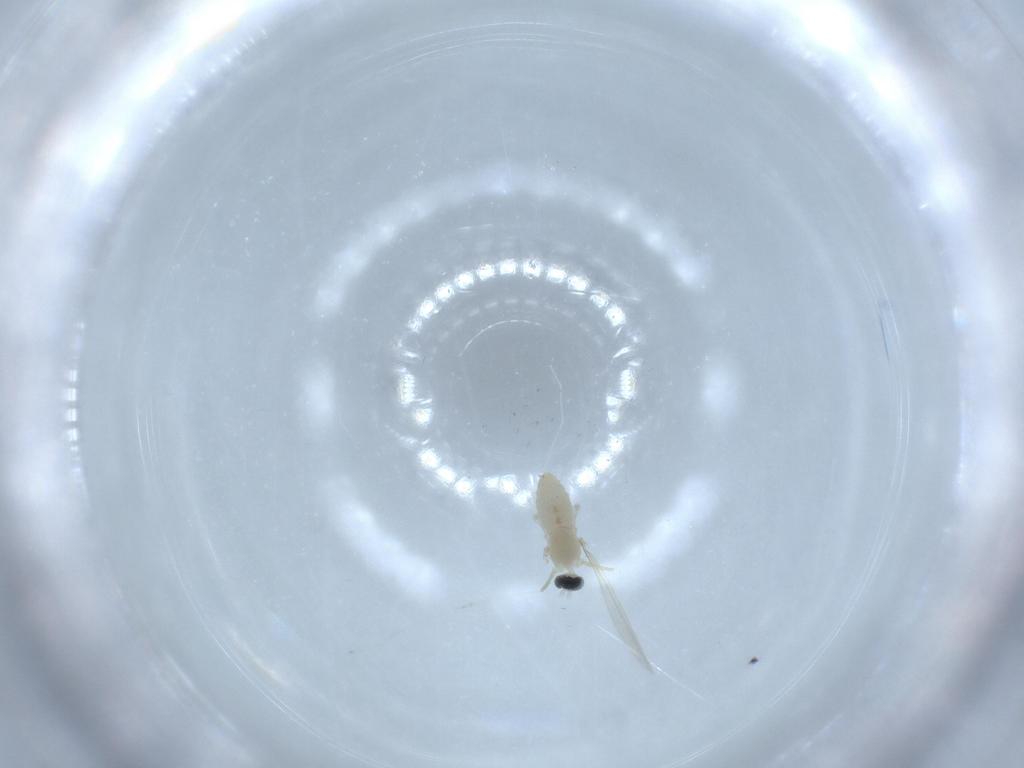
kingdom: Animalia
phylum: Arthropoda
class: Insecta
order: Diptera
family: Cecidomyiidae
